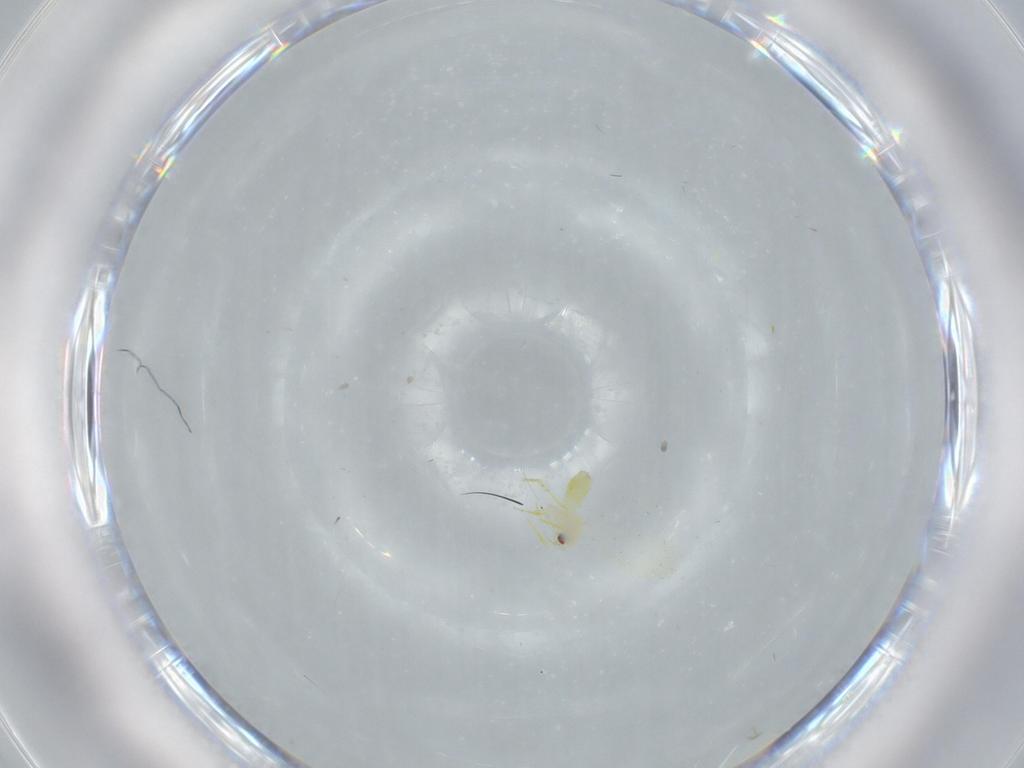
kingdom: Animalia
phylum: Arthropoda
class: Insecta
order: Hemiptera
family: Aleyrodidae
